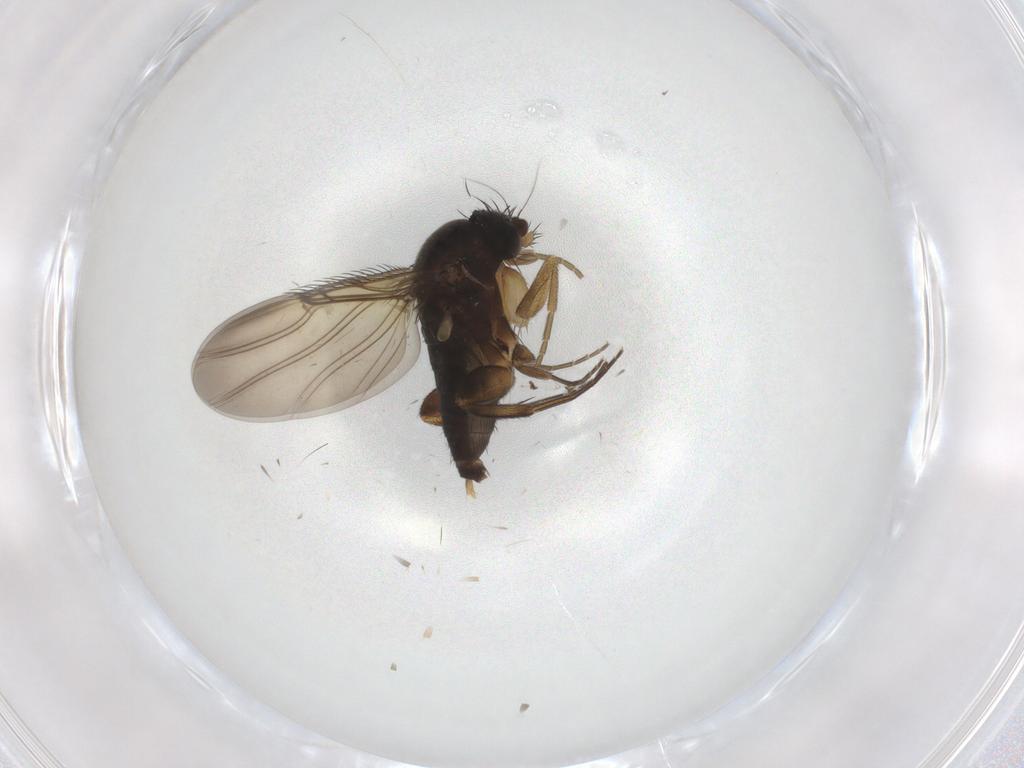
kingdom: Animalia
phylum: Arthropoda
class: Insecta
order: Diptera
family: Phoridae
